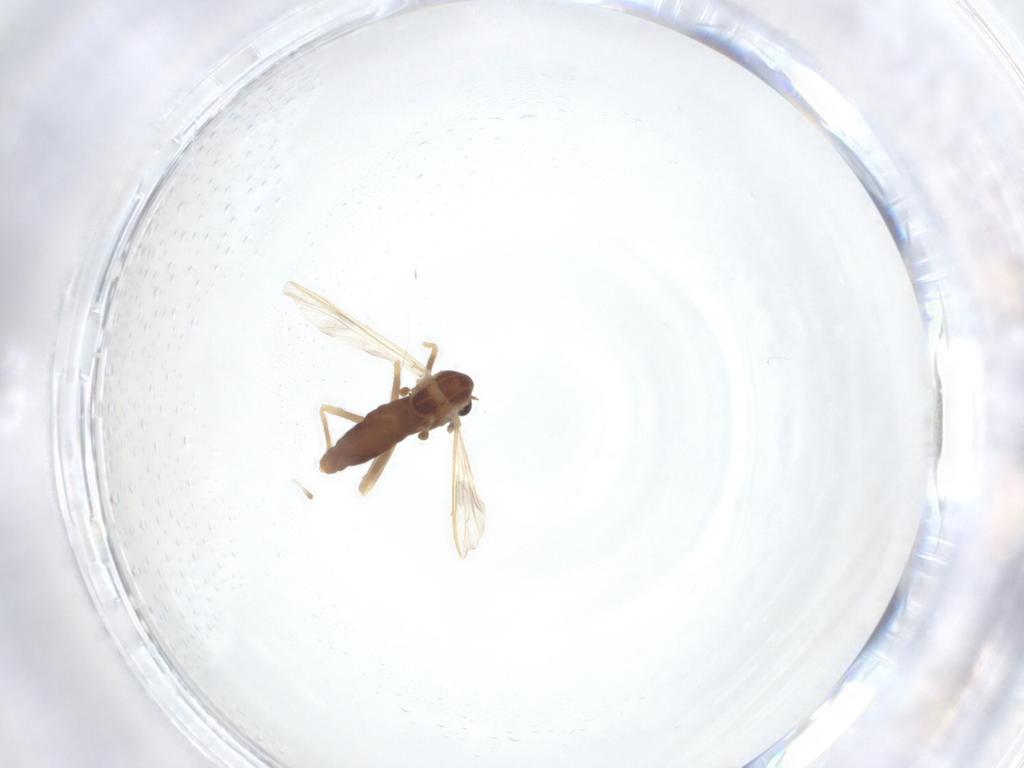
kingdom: Animalia
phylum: Arthropoda
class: Insecta
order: Diptera
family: Chironomidae
